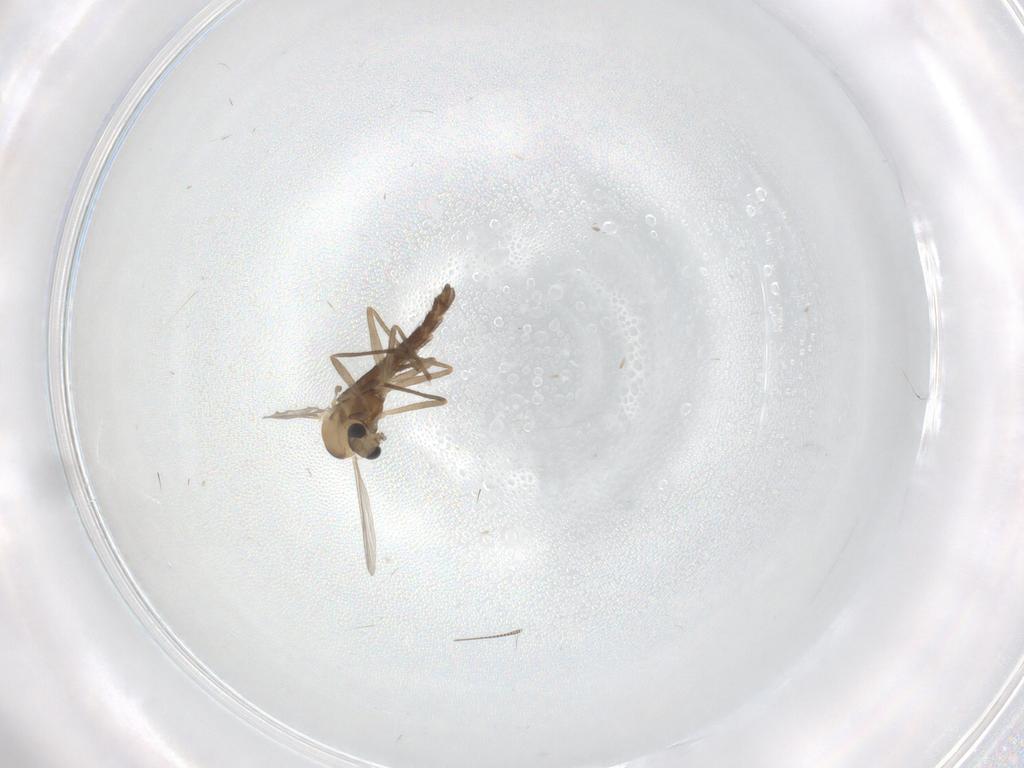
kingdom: Animalia
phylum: Arthropoda
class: Insecta
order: Diptera
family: Chironomidae
